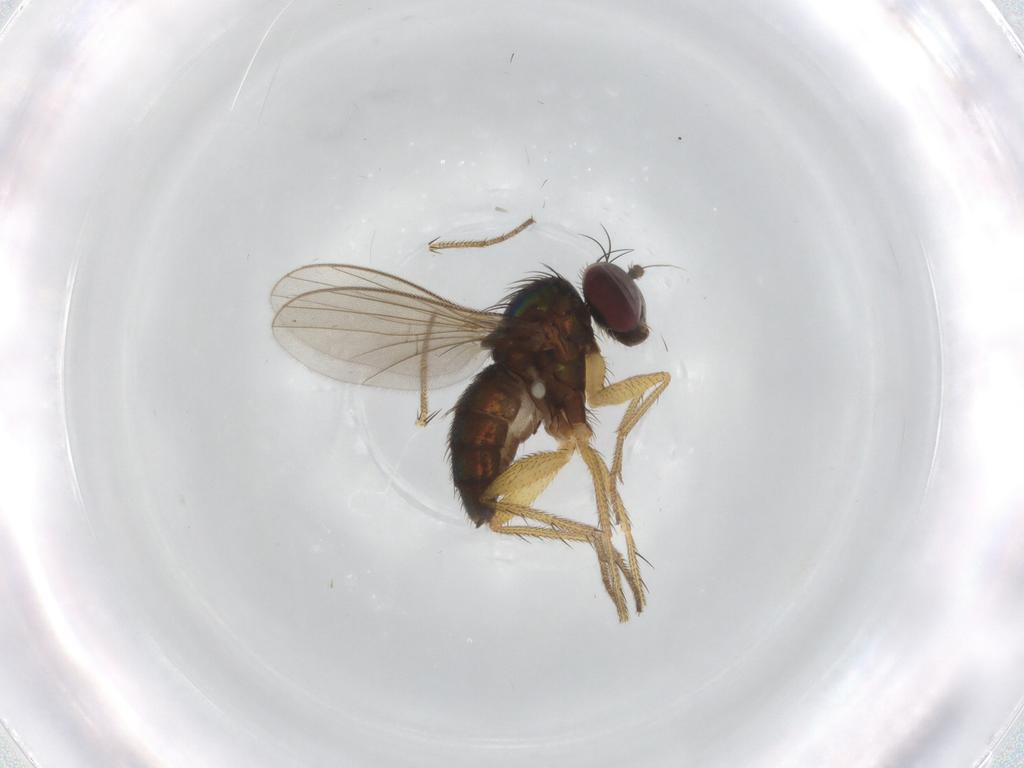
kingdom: Animalia
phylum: Arthropoda
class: Insecta
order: Diptera
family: Dolichopodidae
